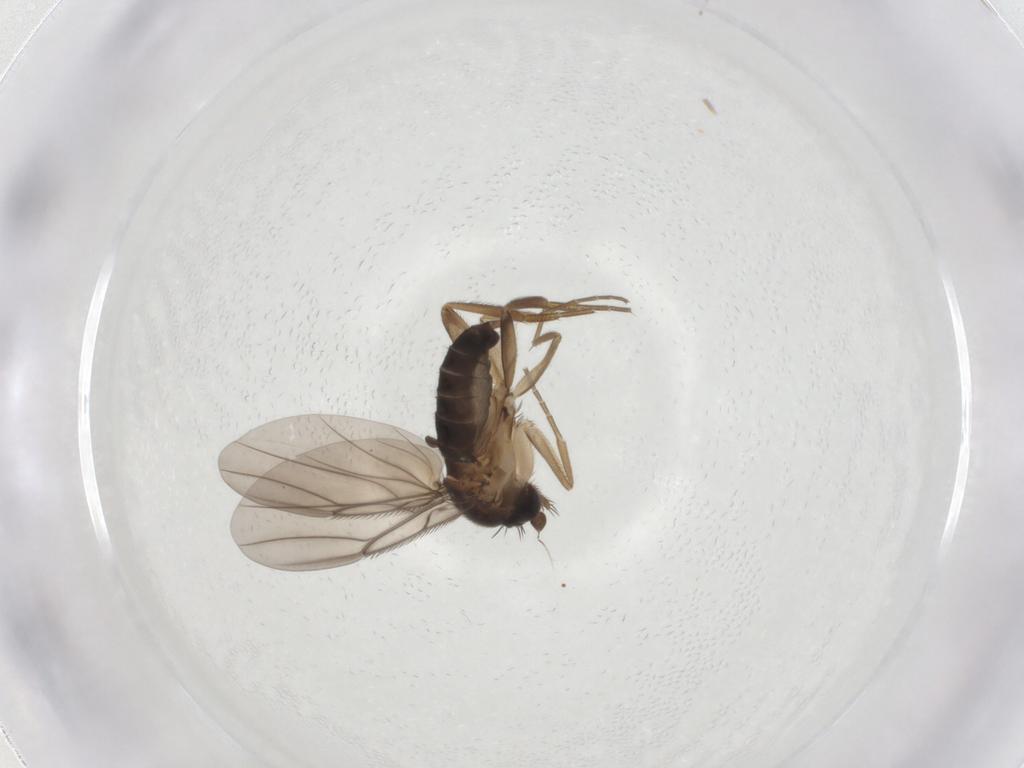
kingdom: Animalia
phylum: Arthropoda
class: Insecta
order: Diptera
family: Phoridae
